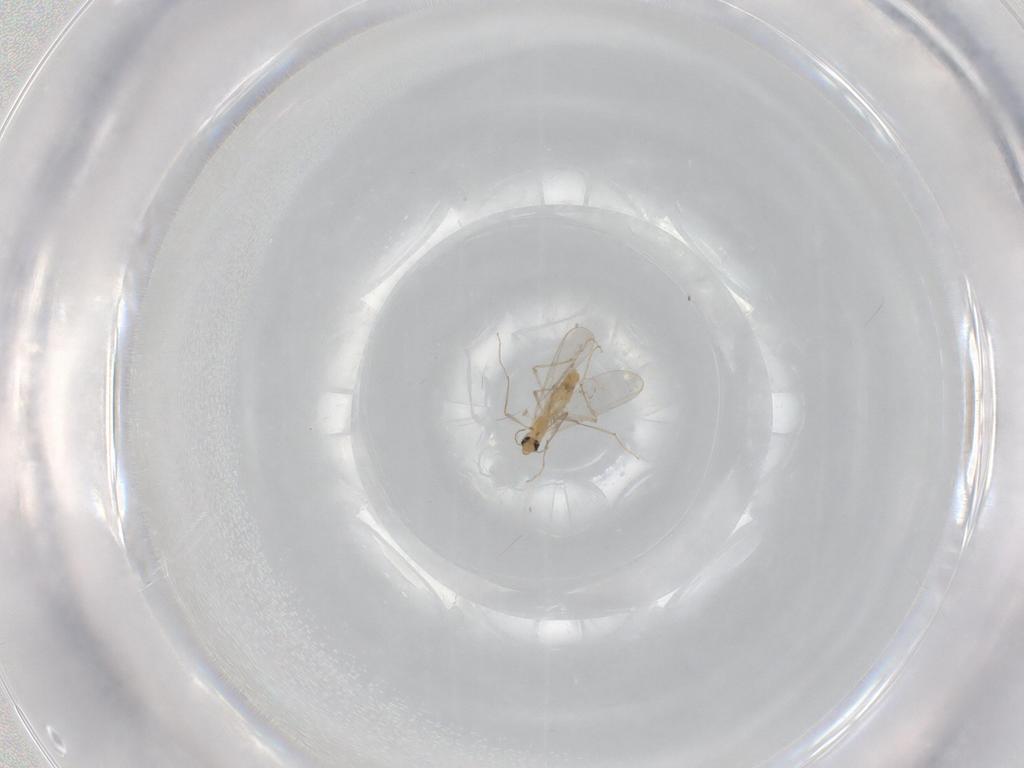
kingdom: Animalia
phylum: Arthropoda
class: Insecta
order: Diptera
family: Chironomidae
